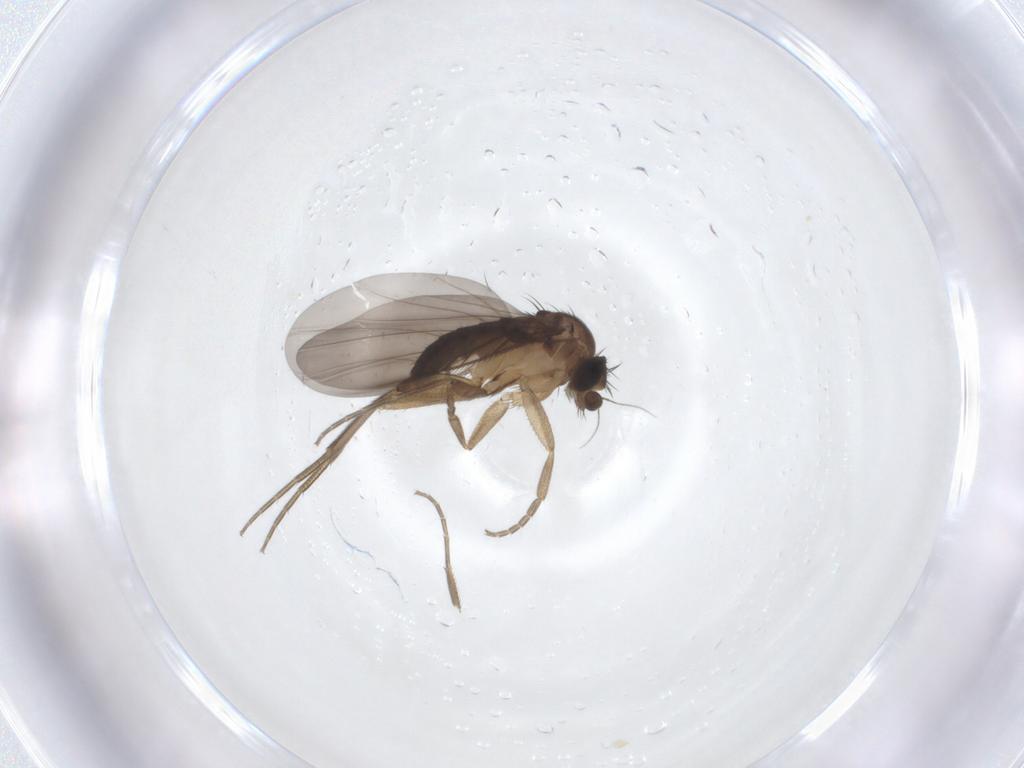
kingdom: Animalia
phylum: Arthropoda
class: Insecta
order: Diptera
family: Phoridae
